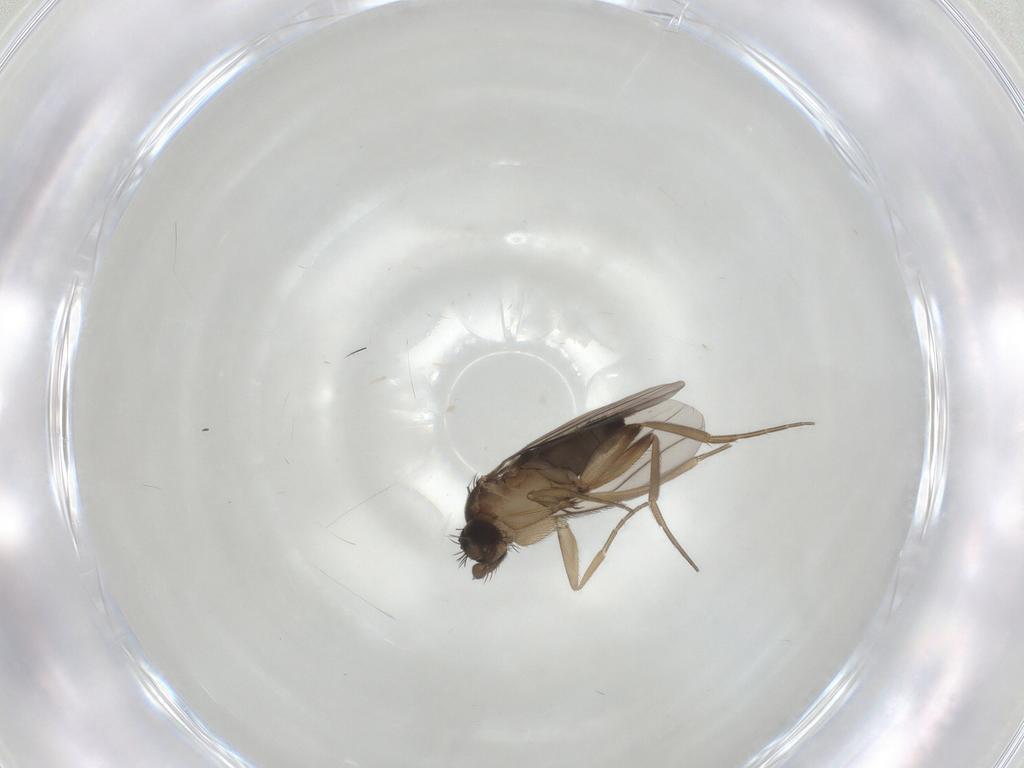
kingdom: Animalia
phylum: Arthropoda
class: Insecta
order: Diptera
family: Phoridae
